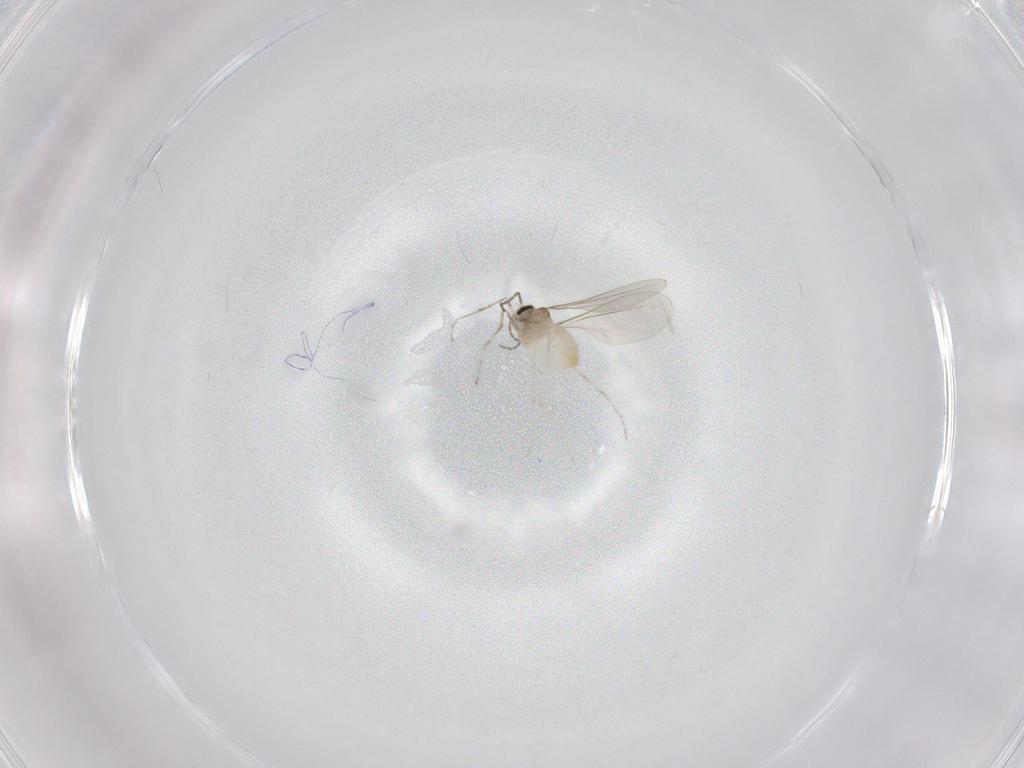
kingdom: Animalia
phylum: Arthropoda
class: Insecta
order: Diptera
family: Cecidomyiidae
